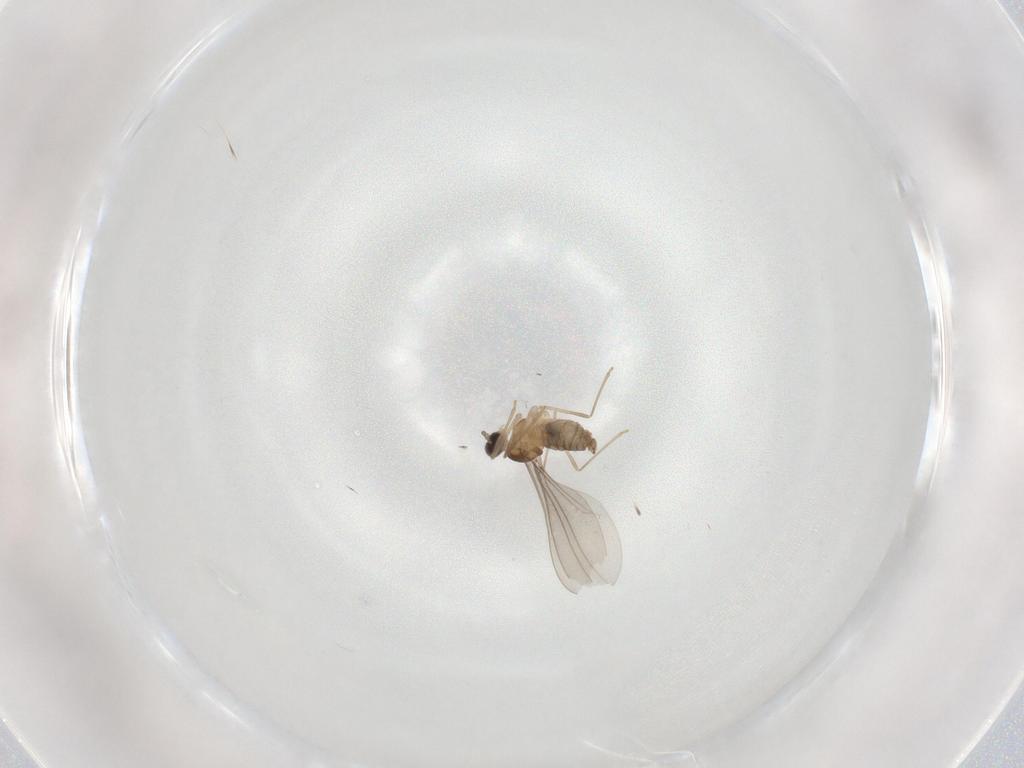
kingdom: Animalia
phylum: Arthropoda
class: Insecta
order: Diptera
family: Cecidomyiidae
